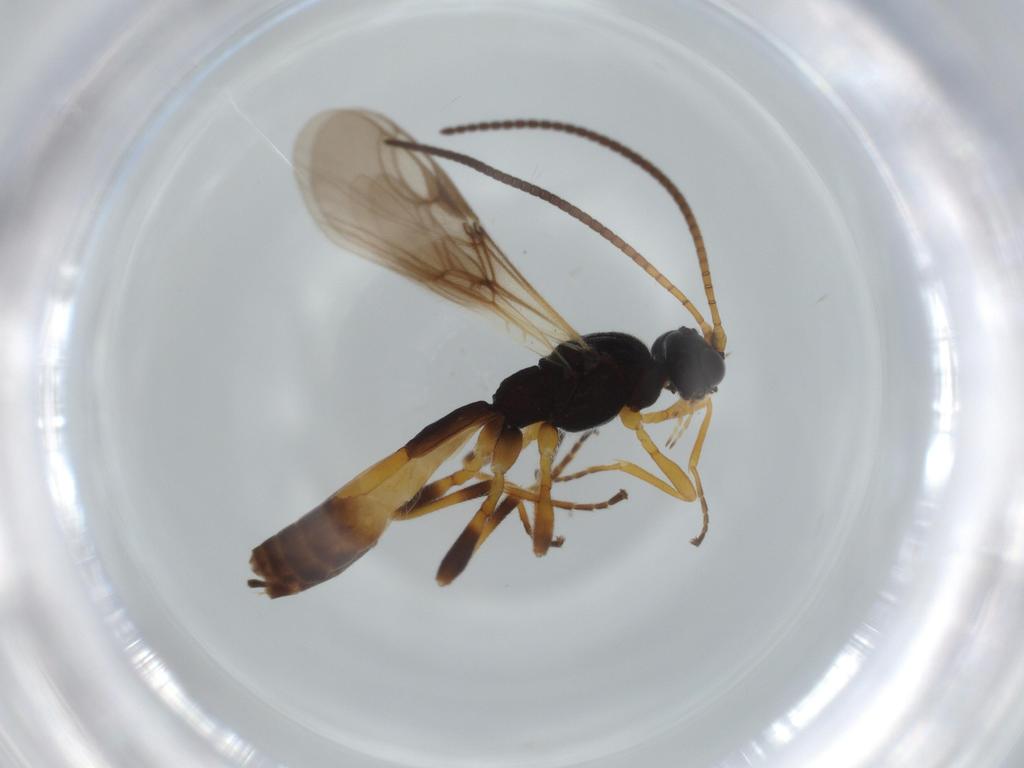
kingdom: Animalia
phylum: Arthropoda
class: Insecta
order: Hymenoptera
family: Braconidae
